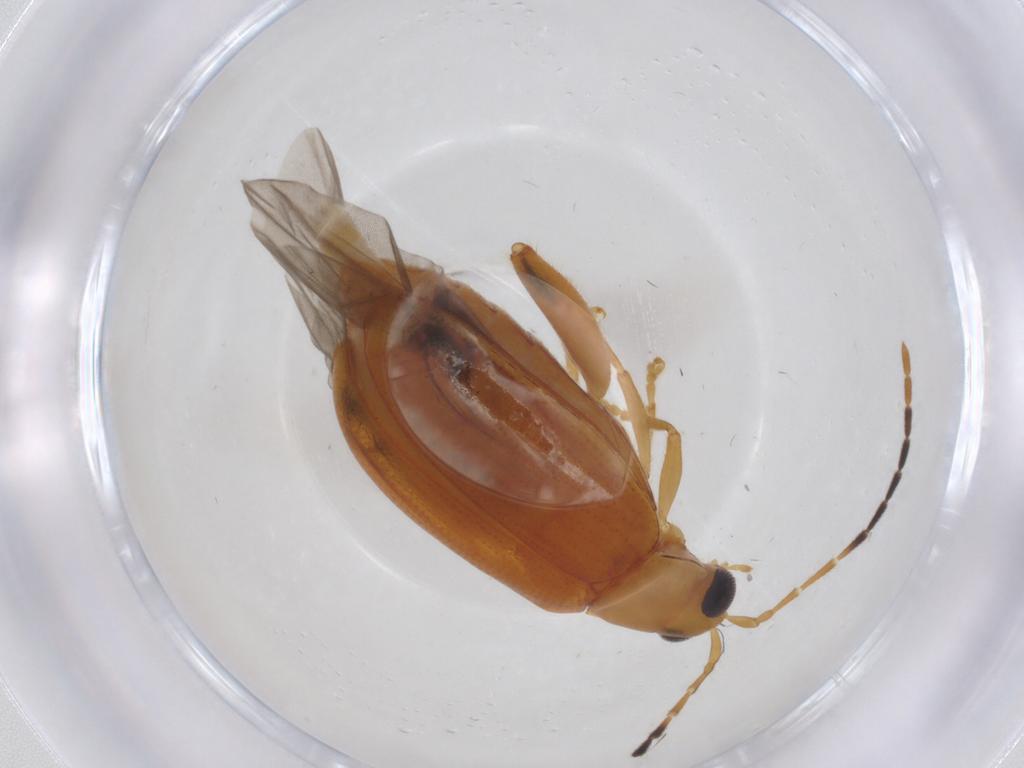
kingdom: Animalia
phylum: Arthropoda
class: Insecta
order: Coleoptera
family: Chrysomelidae
